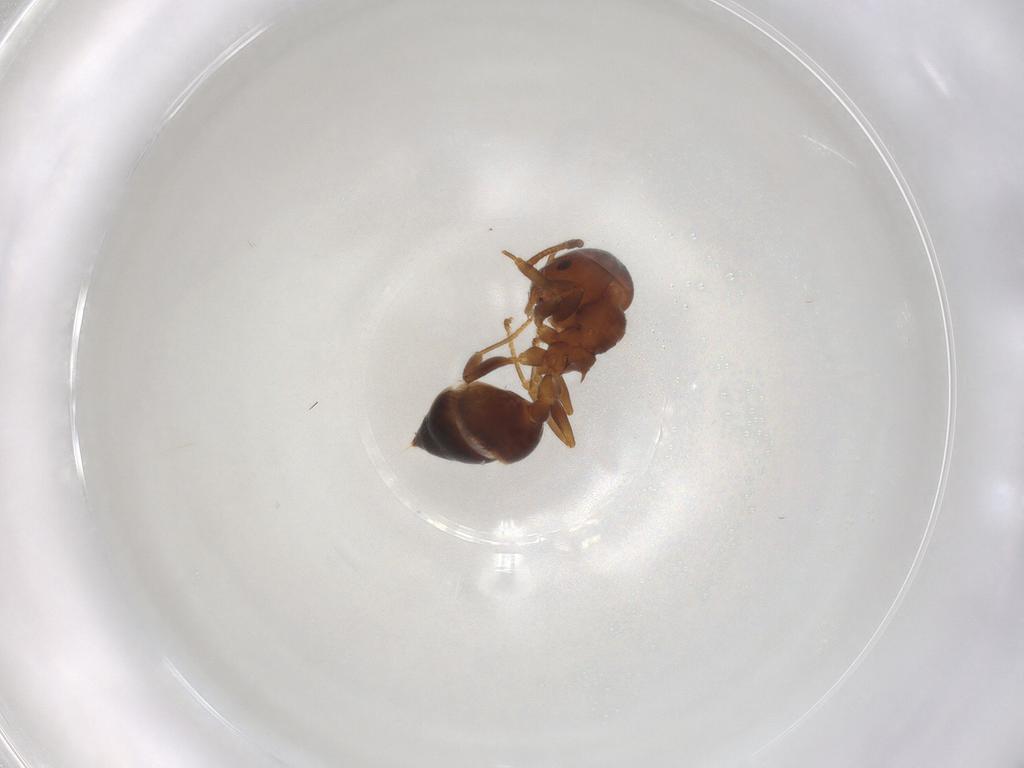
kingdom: Animalia
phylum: Arthropoda
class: Insecta
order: Hymenoptera
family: Formicidae
